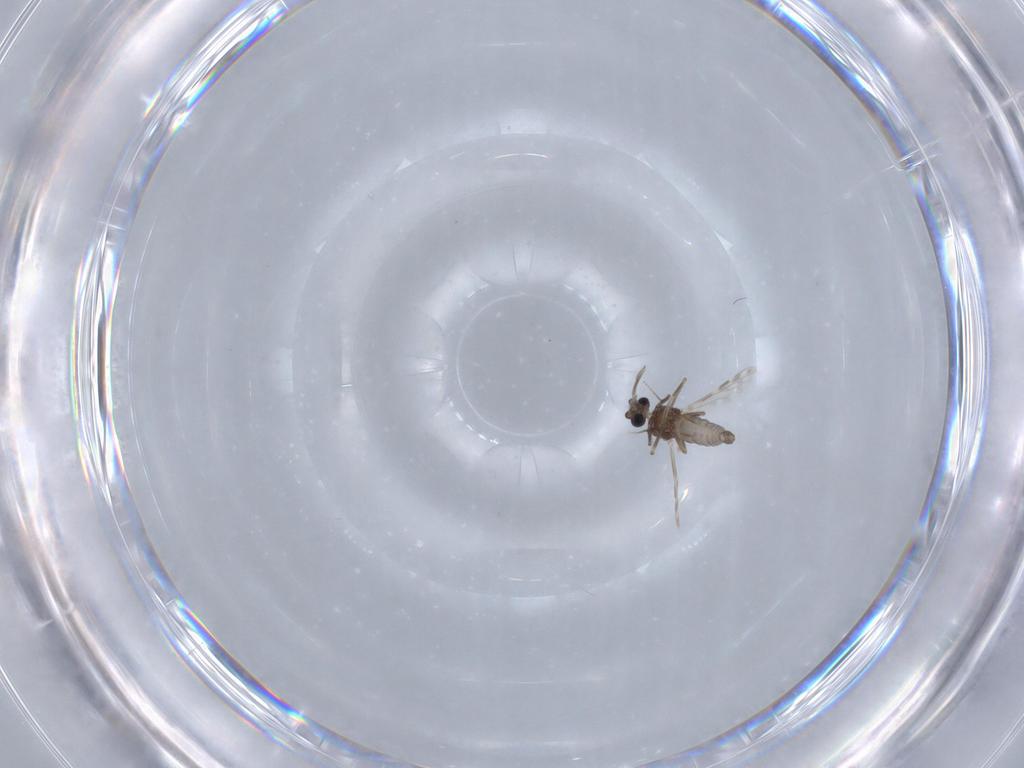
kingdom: Animalia
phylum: Arthropoda
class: Insecta
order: Diptera
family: Ceratopogonidae
